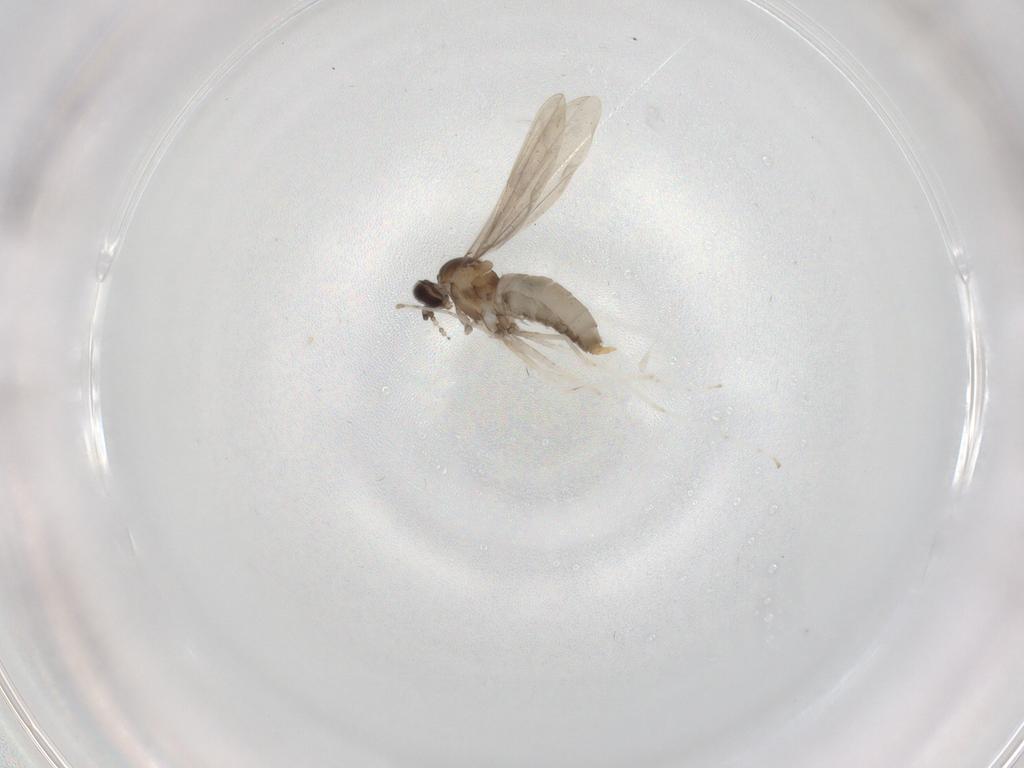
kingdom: Animalia
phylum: Arthropoda
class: Insecta
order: Diptera
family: Cecidomyiidae
